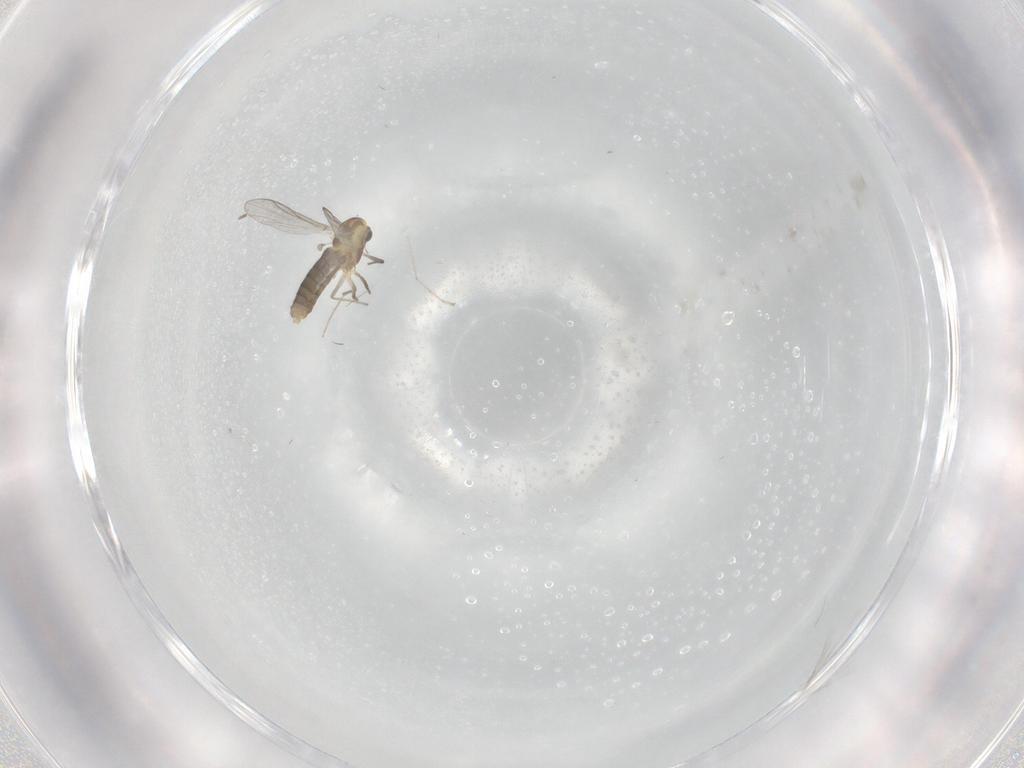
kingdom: Animalia
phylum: Arthropoda
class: Insecta
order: Diptera
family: Chironomidae
